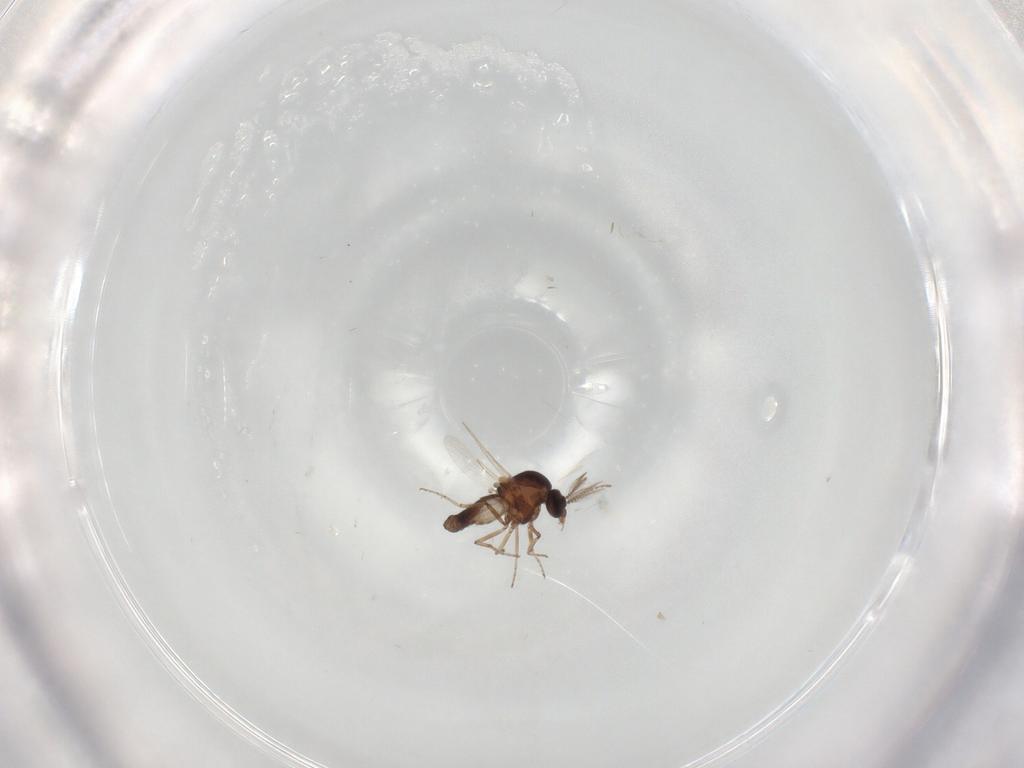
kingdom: Animalia
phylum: Arthropoda
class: Insecta
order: Diptera
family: Ceratopogonidae
